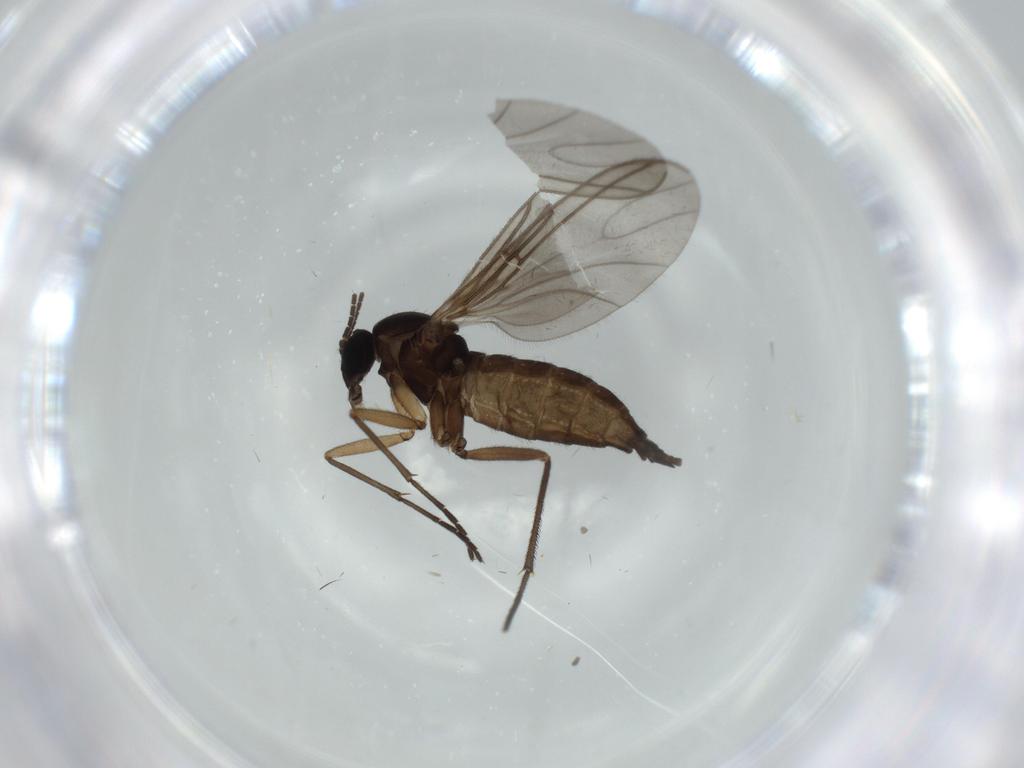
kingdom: Animalia
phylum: Arthropoda
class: Insecta
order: Diptera
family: Sciaridae
